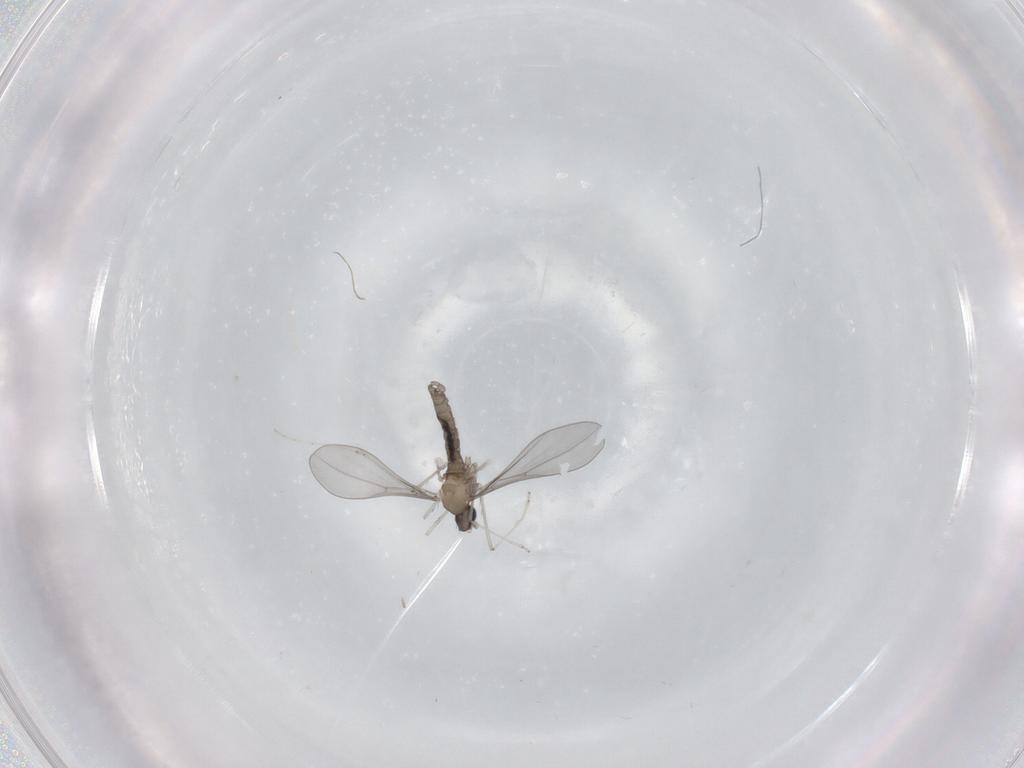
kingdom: Animalia
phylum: Arthropoda
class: Insecta
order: Diptera
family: Cecidomyiidae
